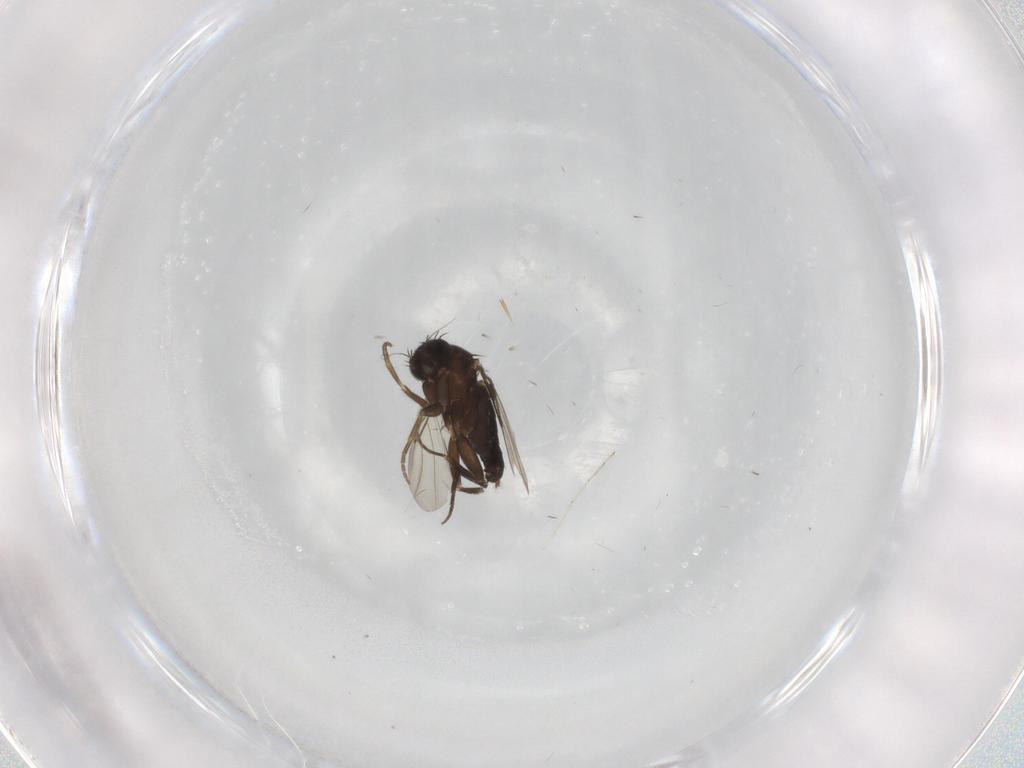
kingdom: Animalia
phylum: Arthropoda
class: Insecta
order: Diptera
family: Phoridae
